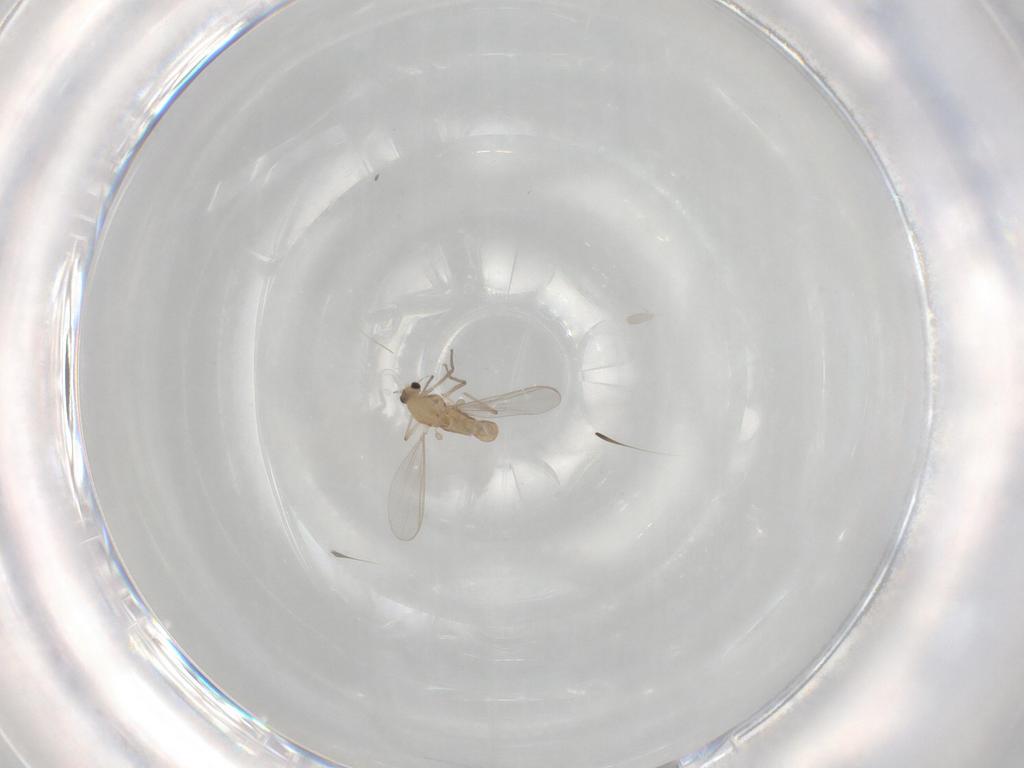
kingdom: Animalia
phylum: Arthropoda
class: Insecta
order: Diptera
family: Chironomidae
